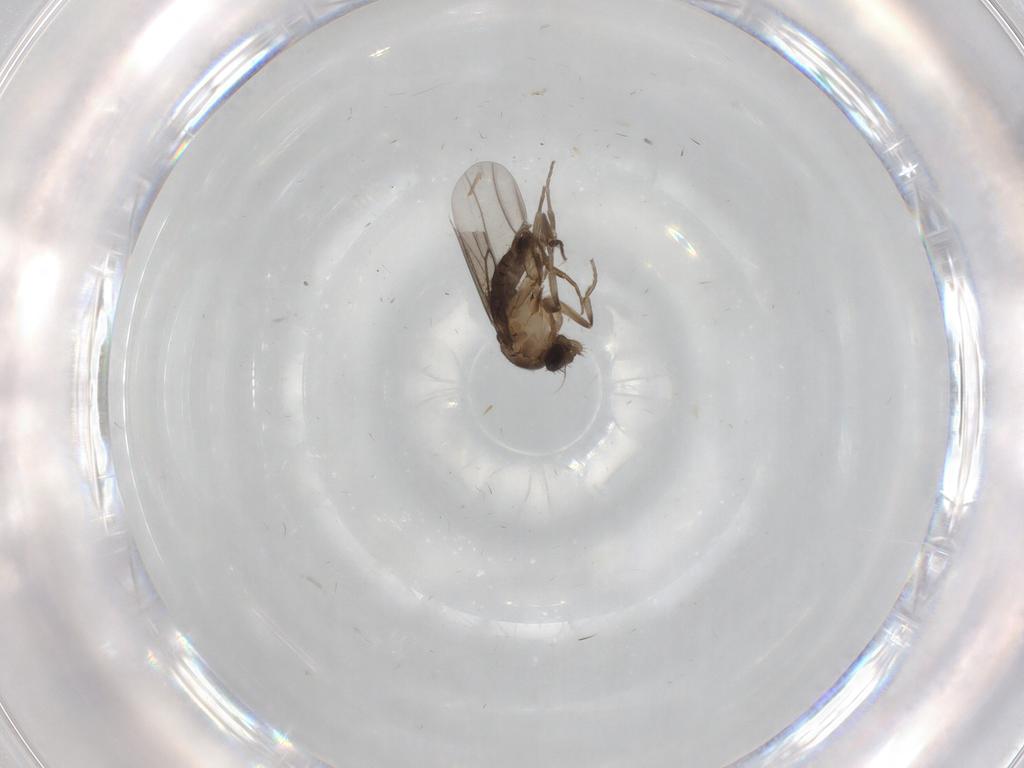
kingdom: Animalia
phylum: Arthropoda
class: Insecta
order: Diptera
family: Phoridae
